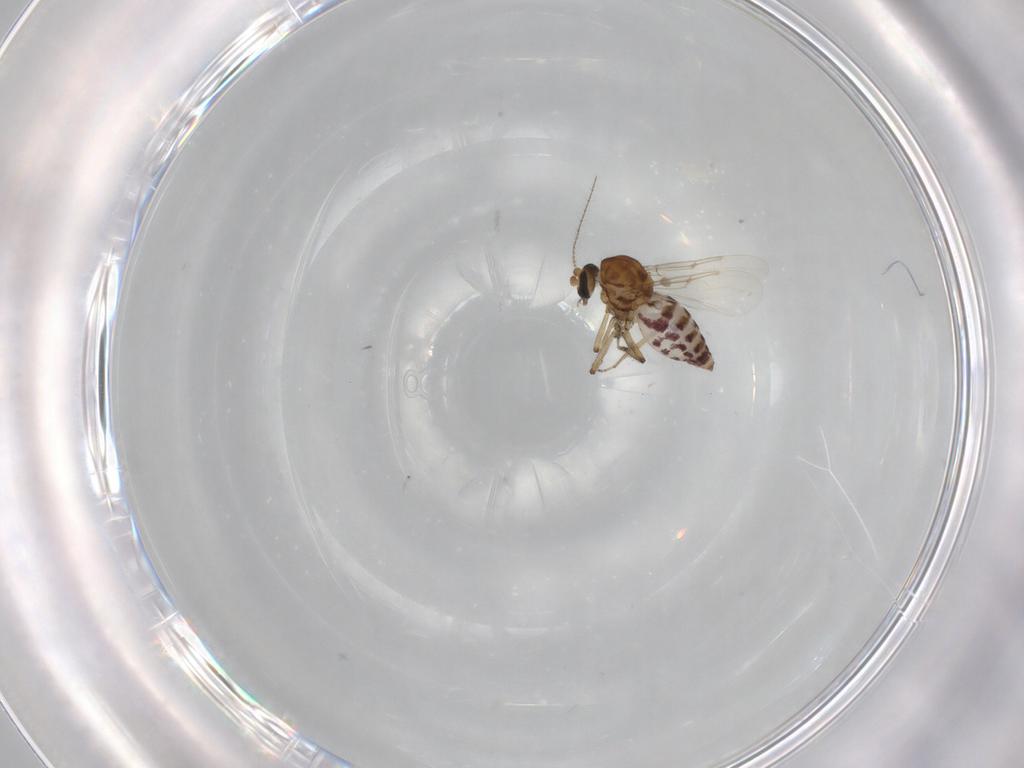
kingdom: Animalia
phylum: Arthropoda
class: Insecta
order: Diptera
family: Ceratopogonidae
